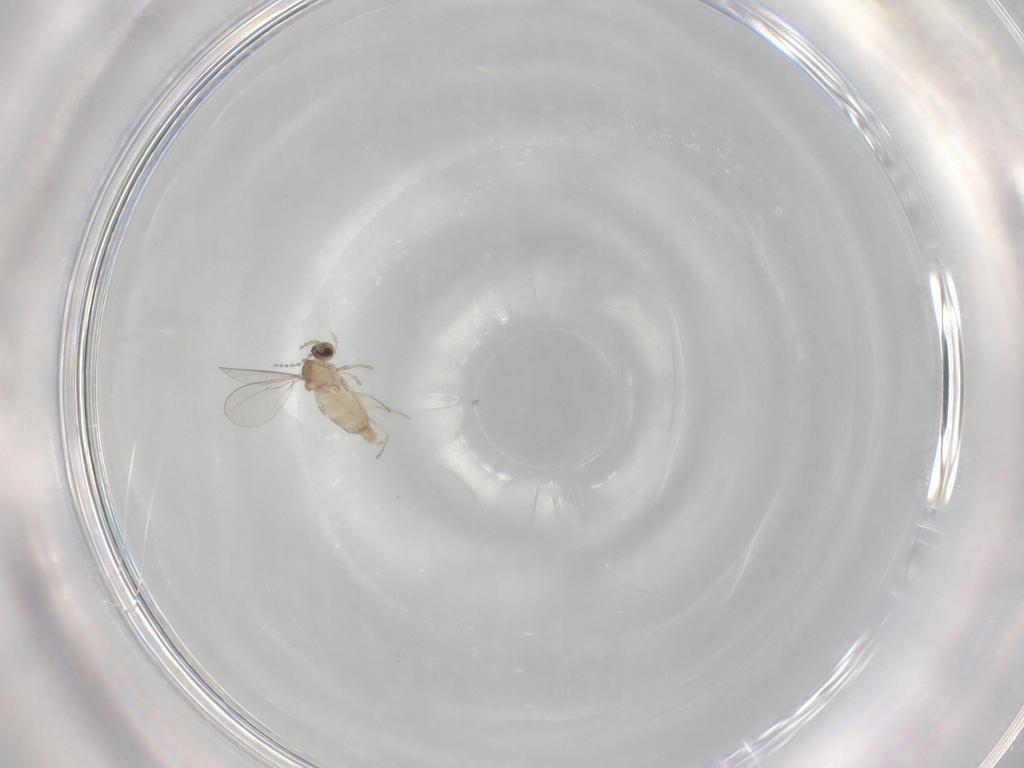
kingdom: Animalia
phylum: Arthropoda
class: Insecta
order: Diptera
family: Cecidomyiidae
